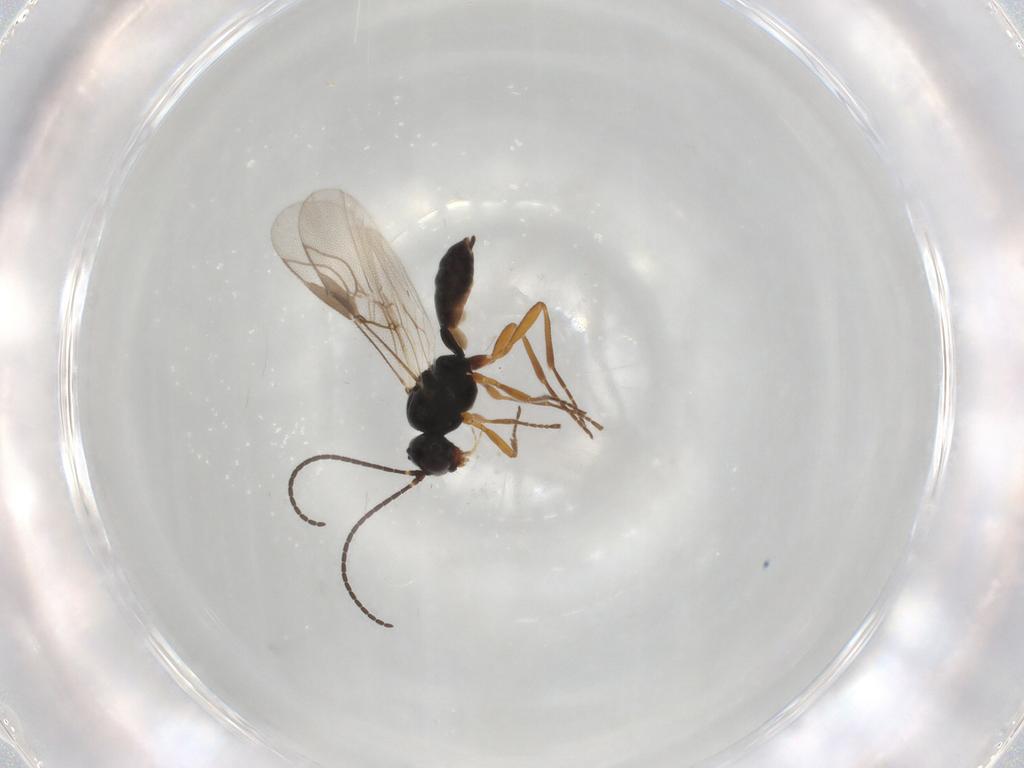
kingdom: Animalia
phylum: Arthropoda
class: Insecta
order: Hymenoptera
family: Braconidae
